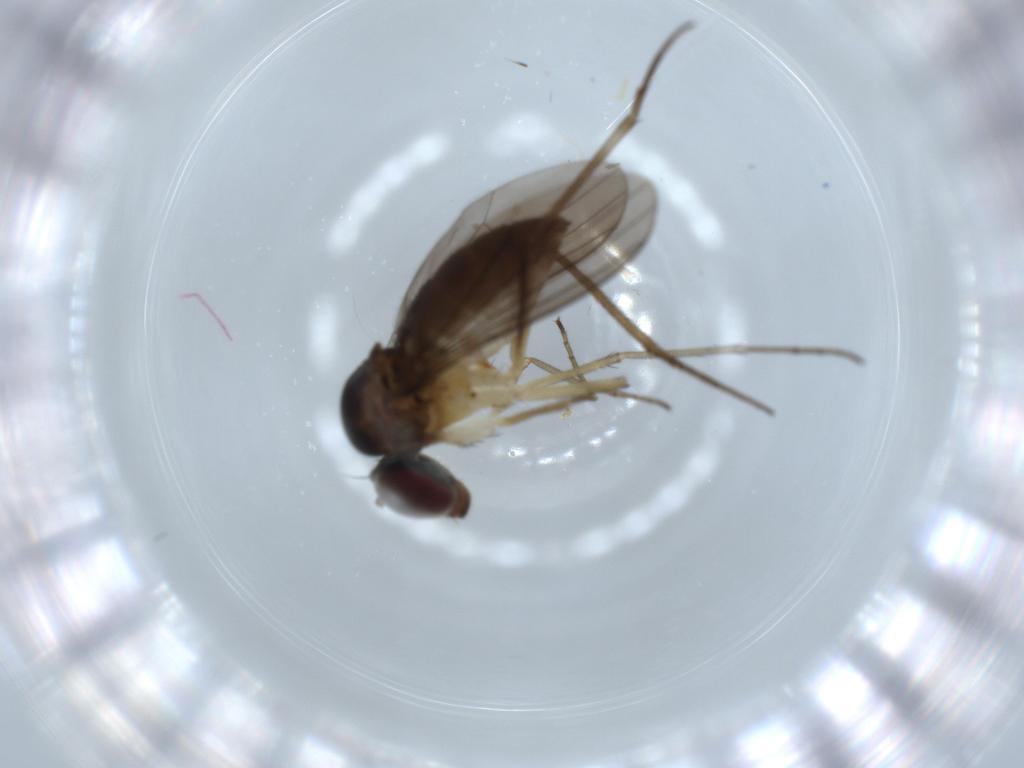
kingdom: Animalia
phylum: Arthropoda
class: Insecta
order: Diptera
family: Dolichopodidae
